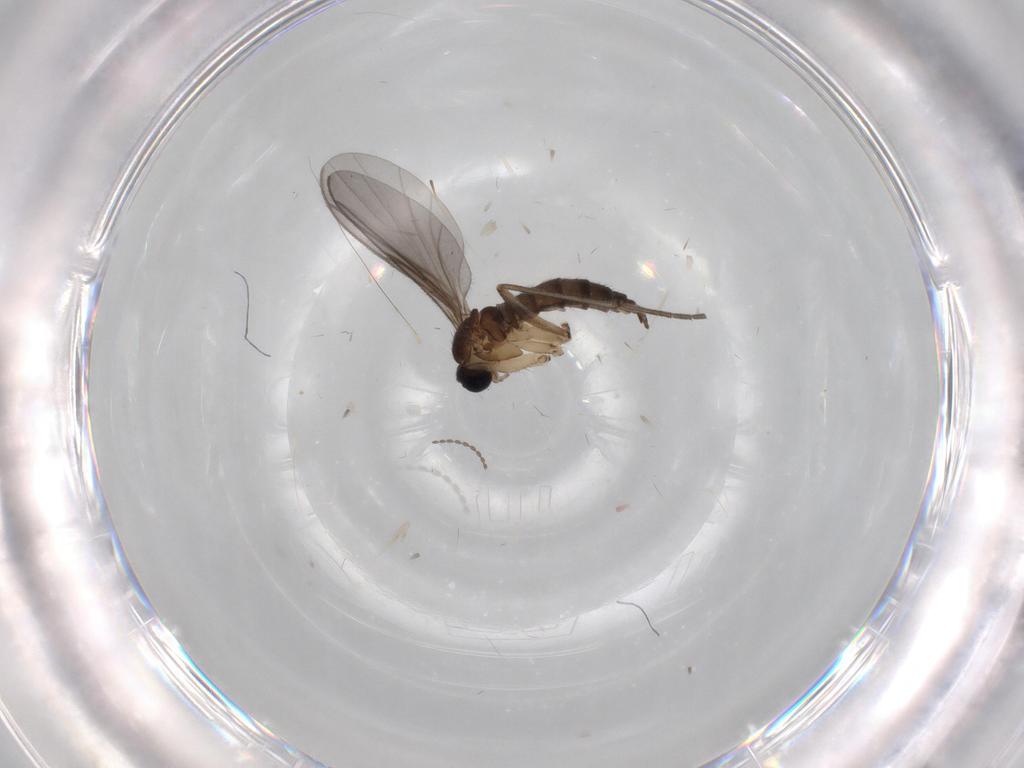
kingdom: Animalia
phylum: Arthropoda
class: Insecta
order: Diptera
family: Sciaridae
